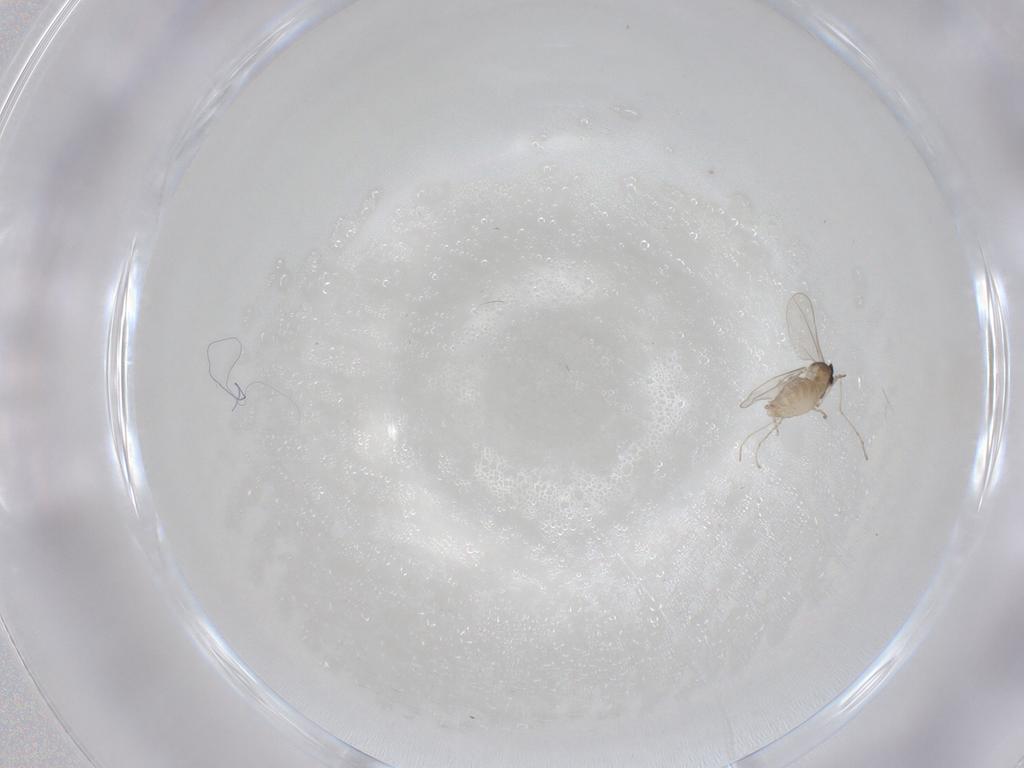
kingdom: Animalia
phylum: Arthropoda
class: Insecta
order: Diptera
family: Cecidomyiidae
